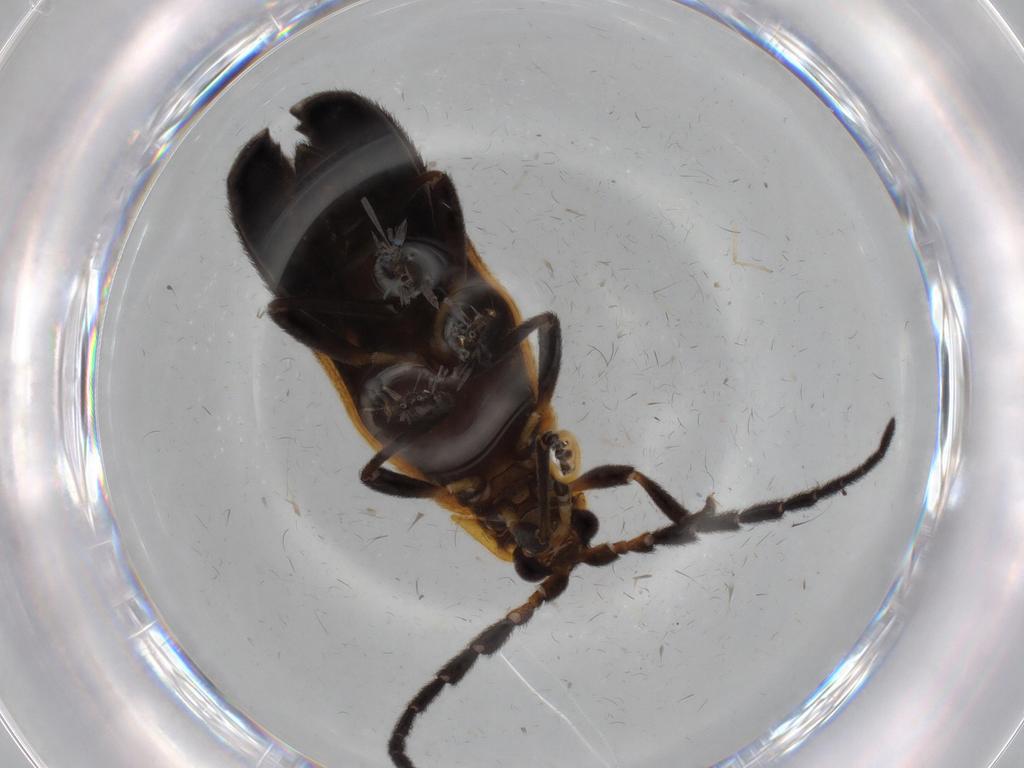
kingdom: Animalia
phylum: Arthropoda
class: Insecta
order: Coleoptera
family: Lycidae
